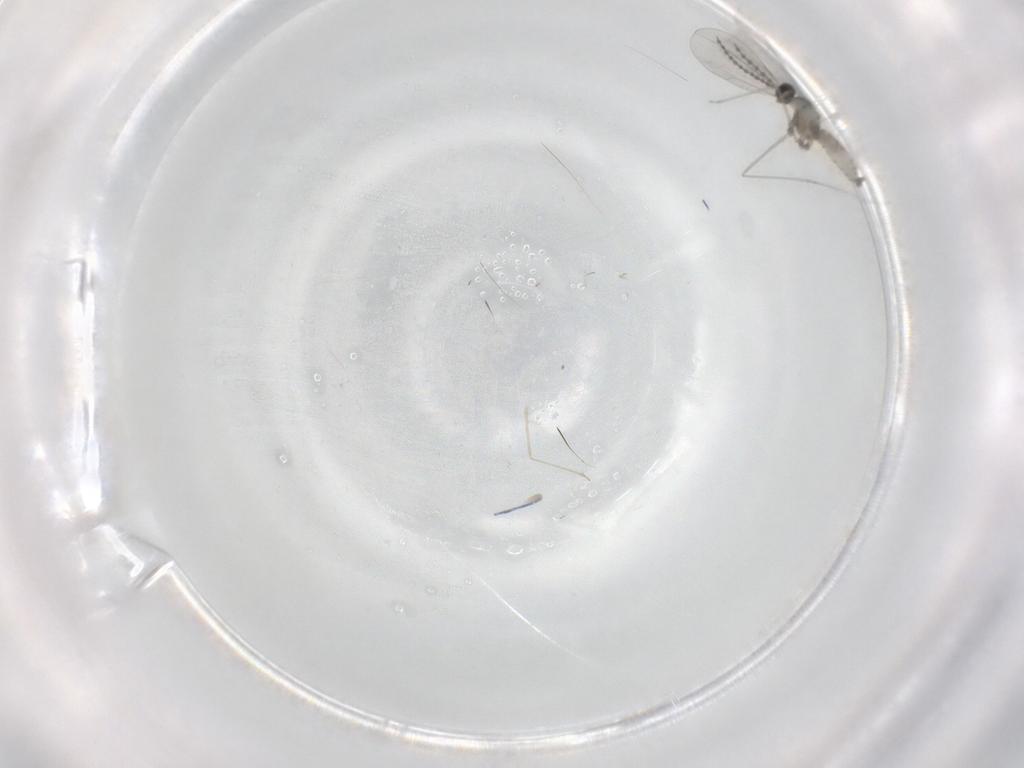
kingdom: Animalia
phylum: Arthropoda
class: Insecta
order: Diptera
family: Cecidomyiidae
